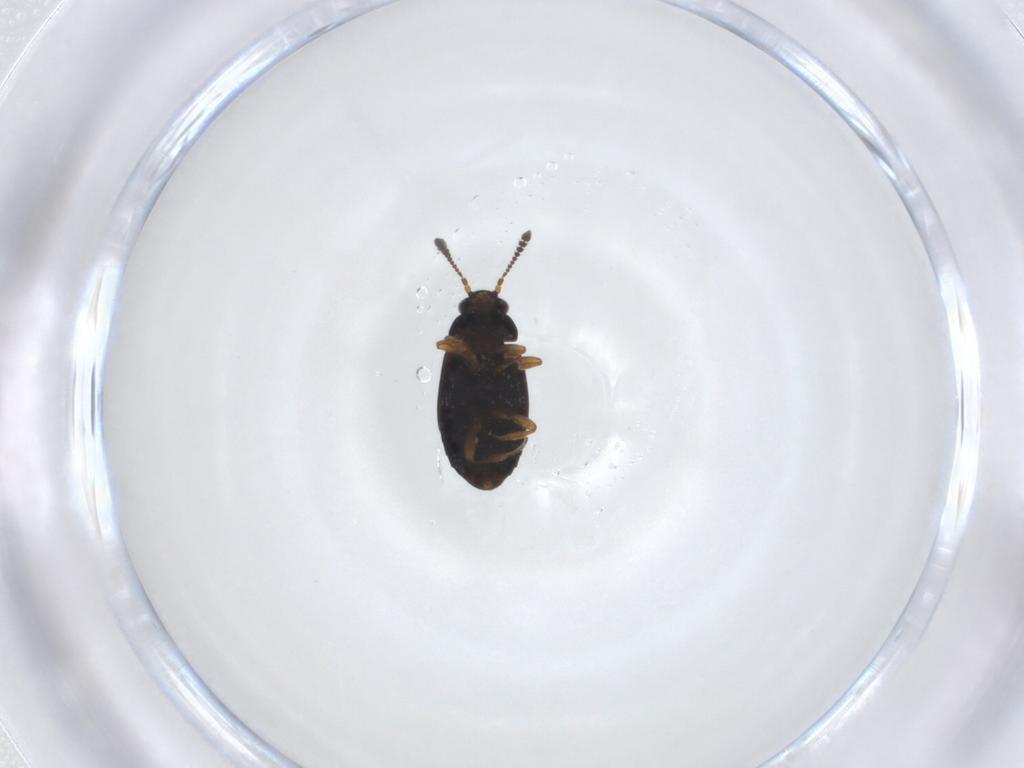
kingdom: Animalia
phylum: Arthropoda
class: Insecta
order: Coleoptera
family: Staphylinidae
